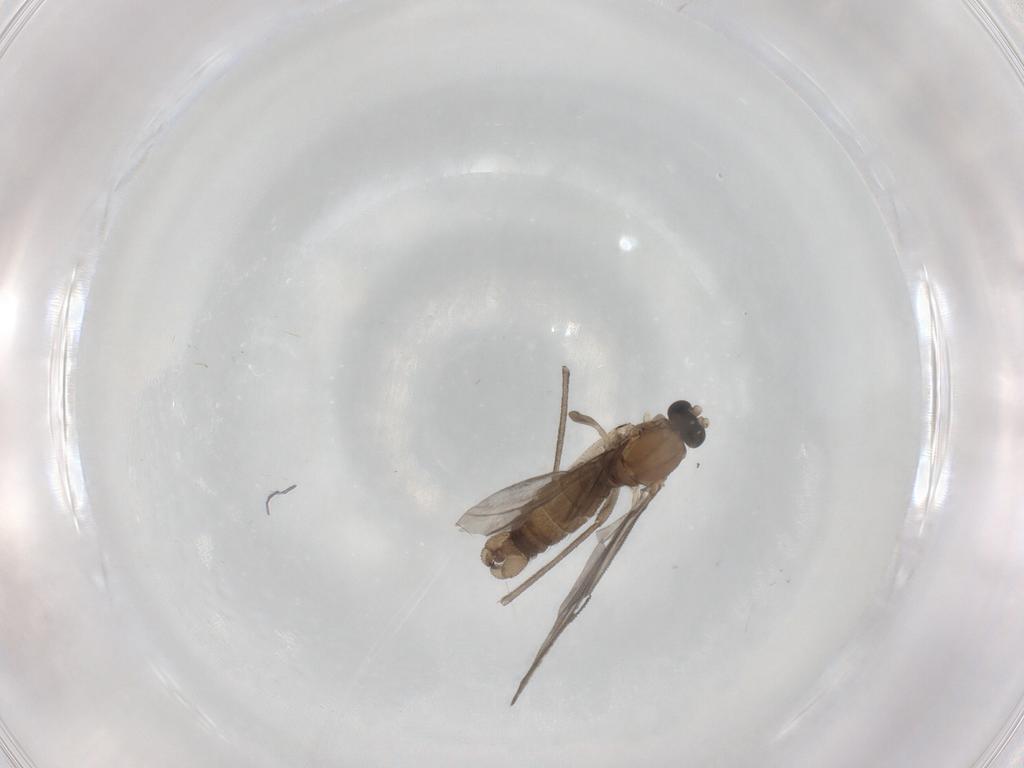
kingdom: Animalia
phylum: Arthropoda
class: Insecta
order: Diptera
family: Sciaridae
